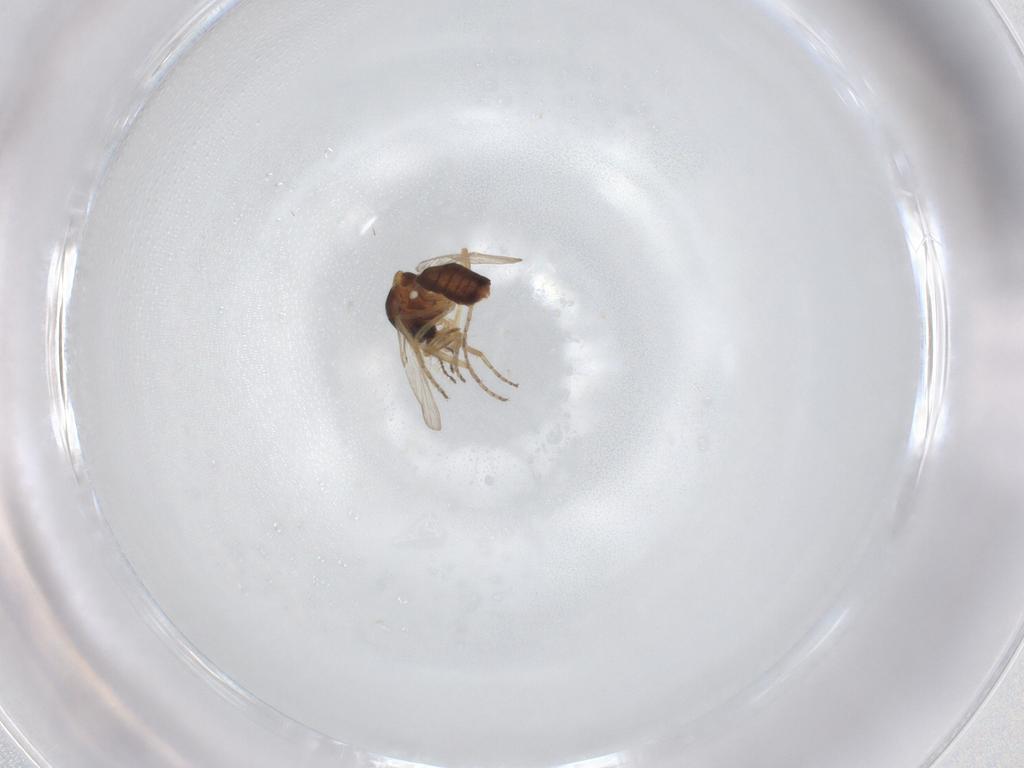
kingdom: Animalia
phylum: Arthropoda
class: Insecta
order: Diptera
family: Ceratopogonidae
